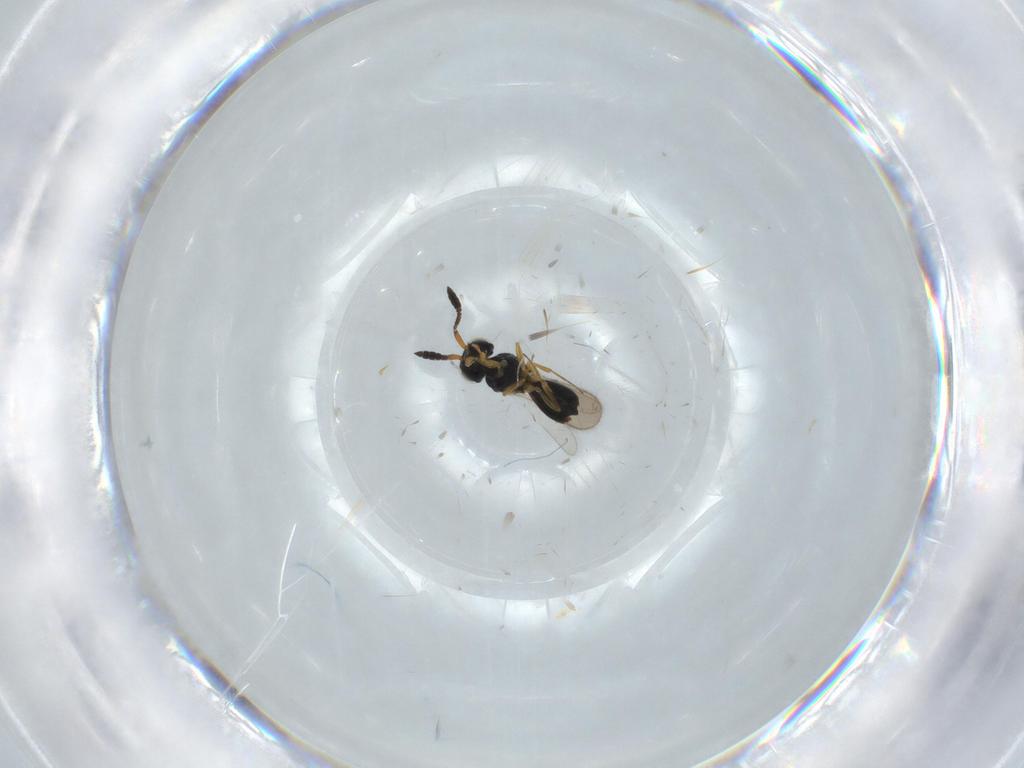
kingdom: Animalia
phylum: Arthropoda
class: Insecta
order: Hymenoptera
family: Scelionidae
